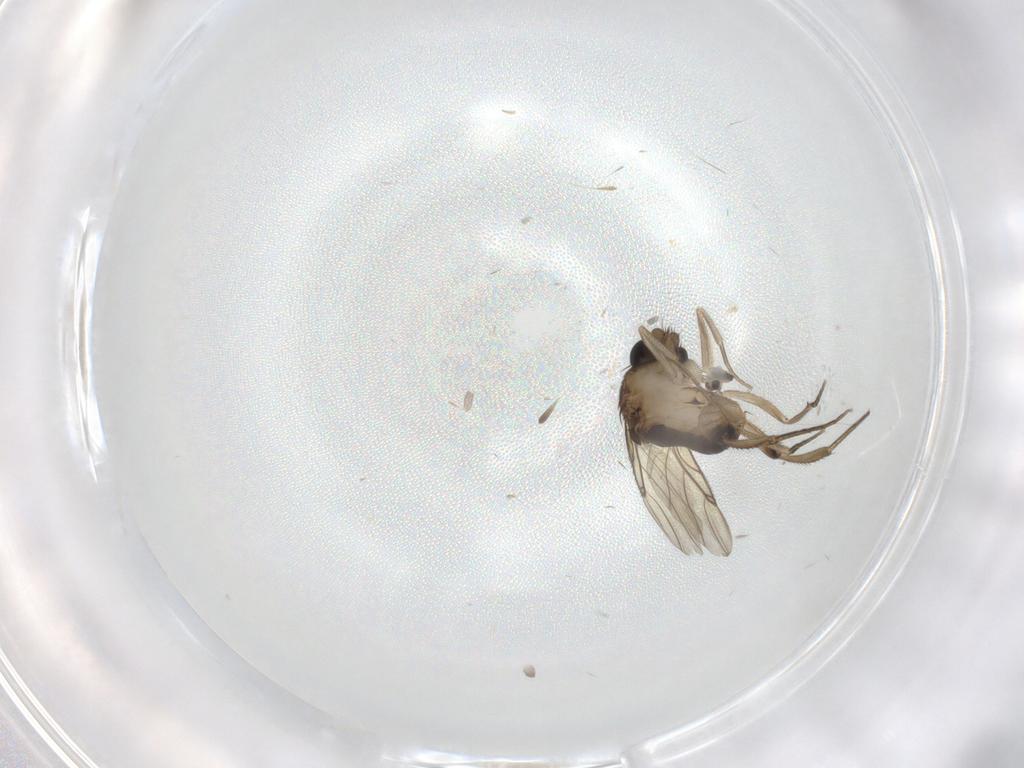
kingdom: Animalia
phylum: Arthropoda
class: Insecta
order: Diptera
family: Phoridae
